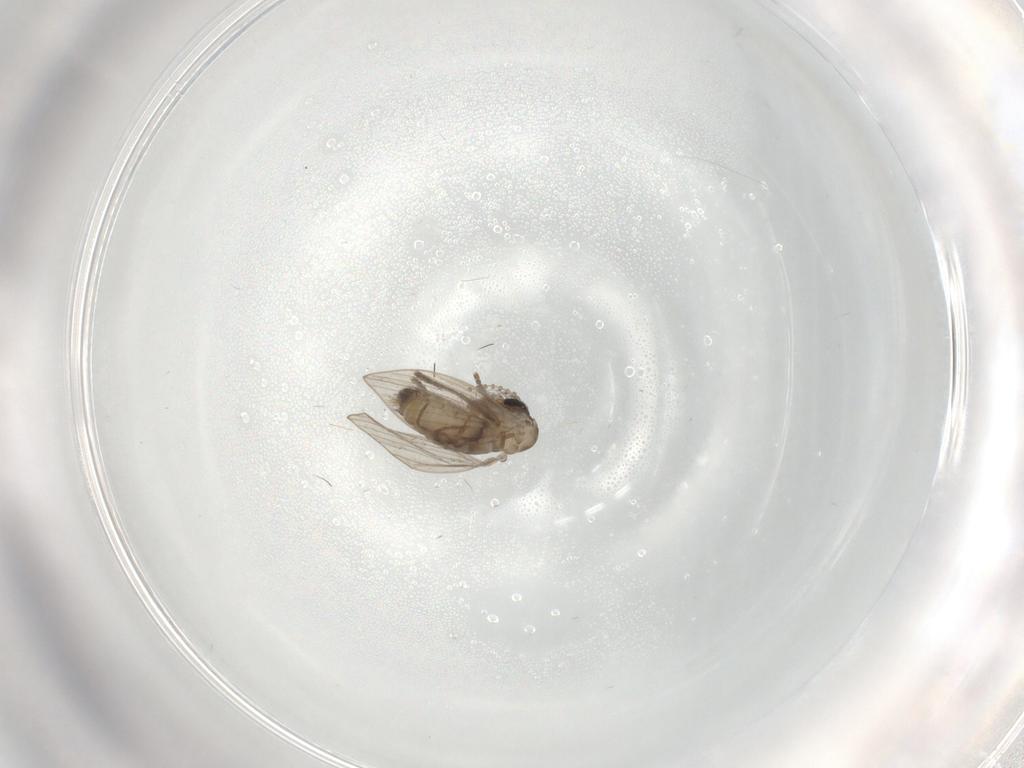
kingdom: Animalia
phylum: Arthropoda
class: Insecta
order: Diptera
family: Psychodidae
